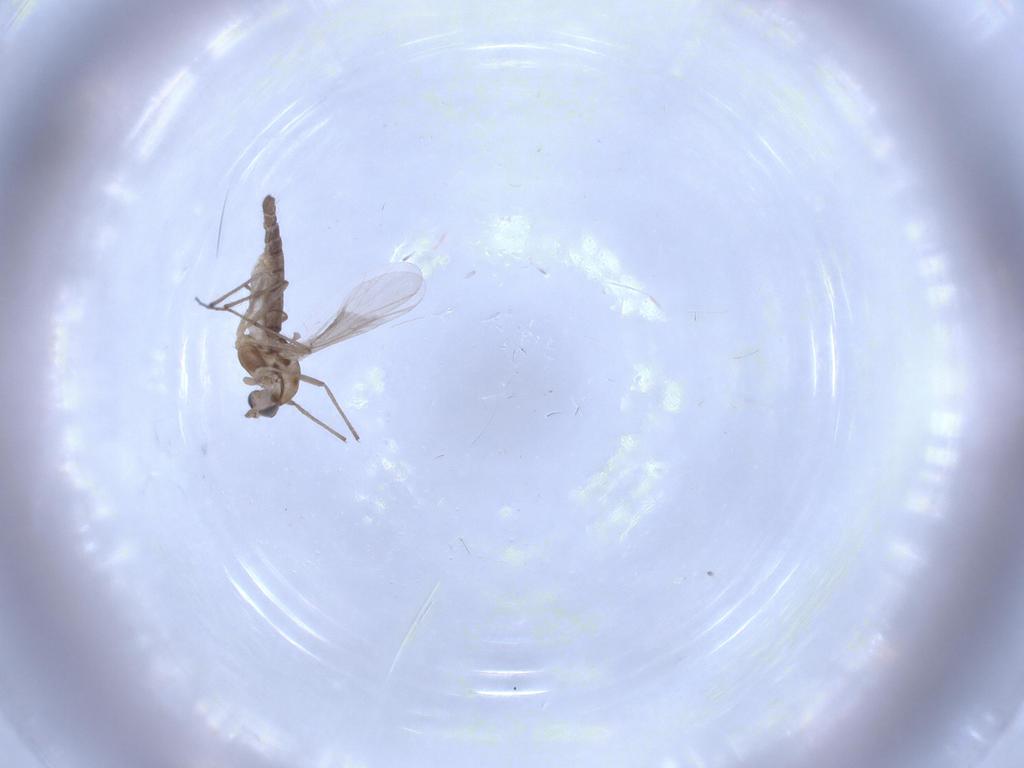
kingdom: Animalia
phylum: Arthropoda
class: Insecta
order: Diptera
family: Chironomidae
